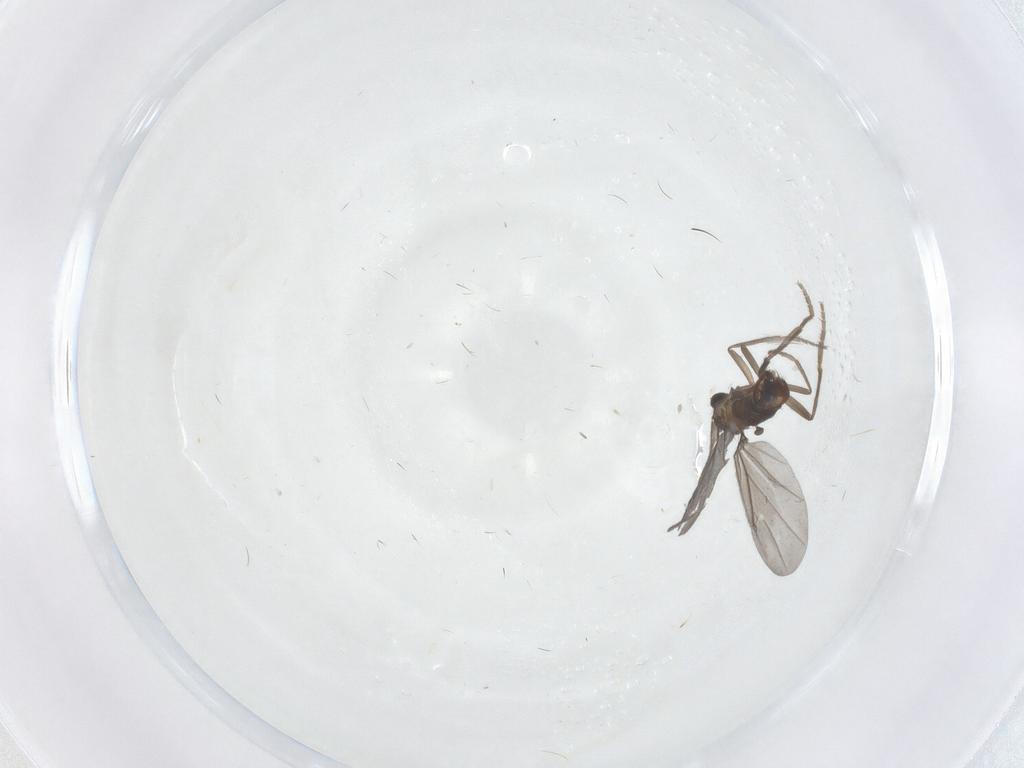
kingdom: Animalia
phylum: Arthropoda
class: Insecta
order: Diptera
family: Phoridae
